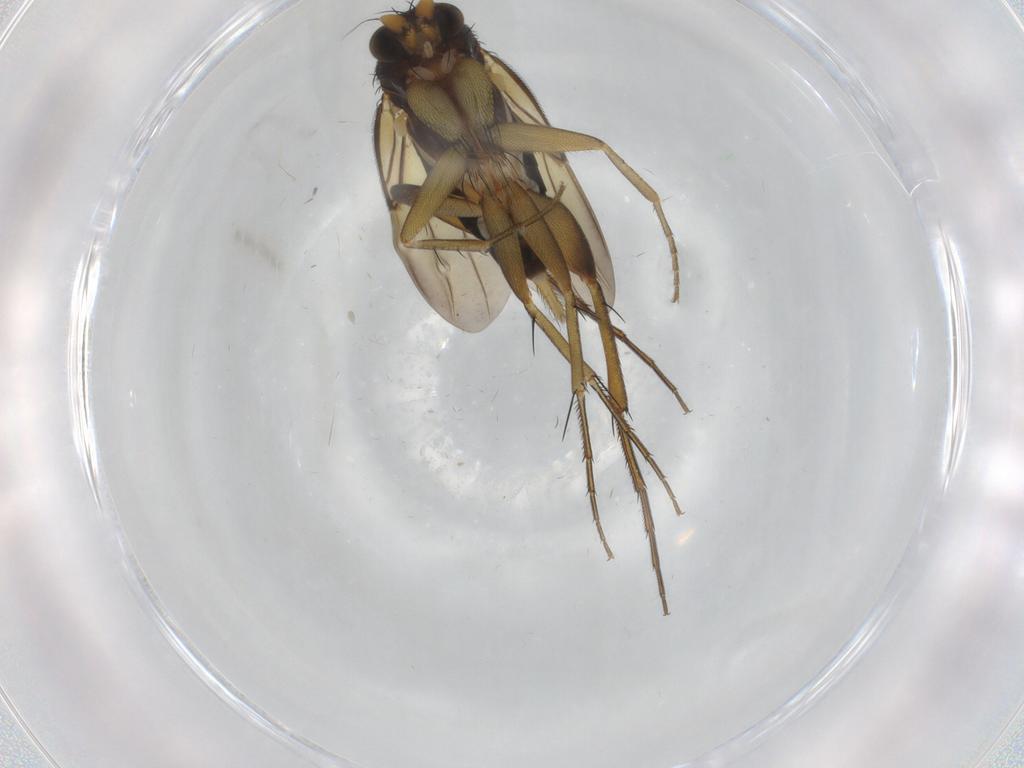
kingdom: Animalia
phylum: Arthropoda
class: Insecta
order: Diptera
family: Phoridae
